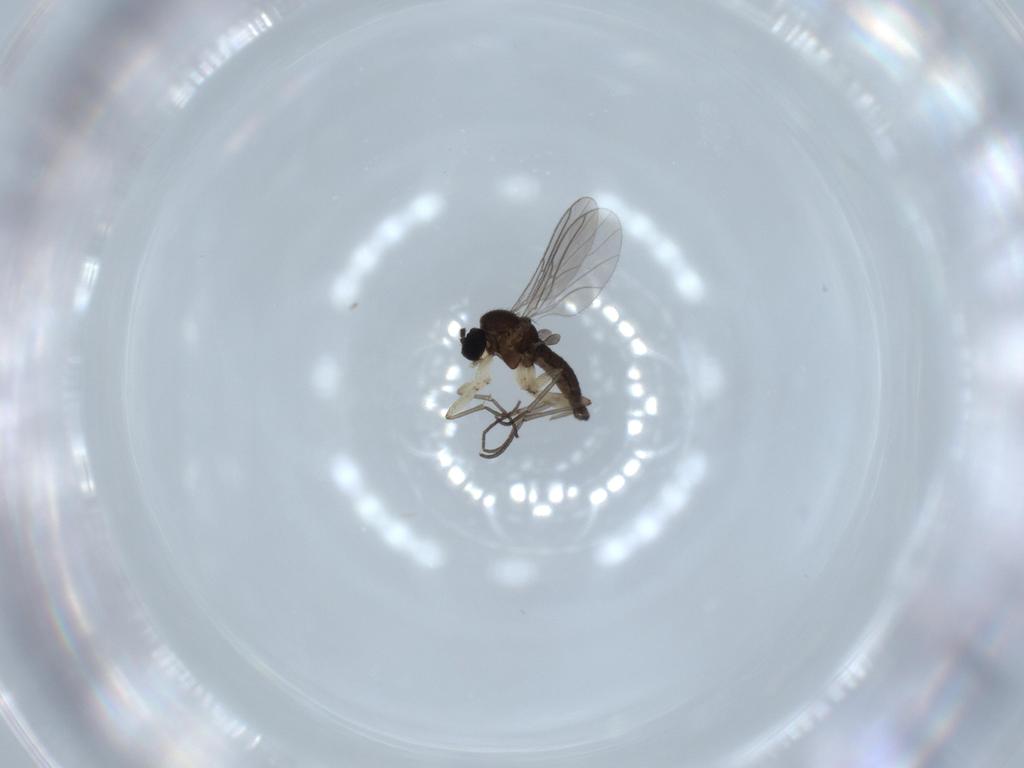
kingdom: Animalia
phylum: Arthropoda
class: Insecta
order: Diptera
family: Sciaridae
